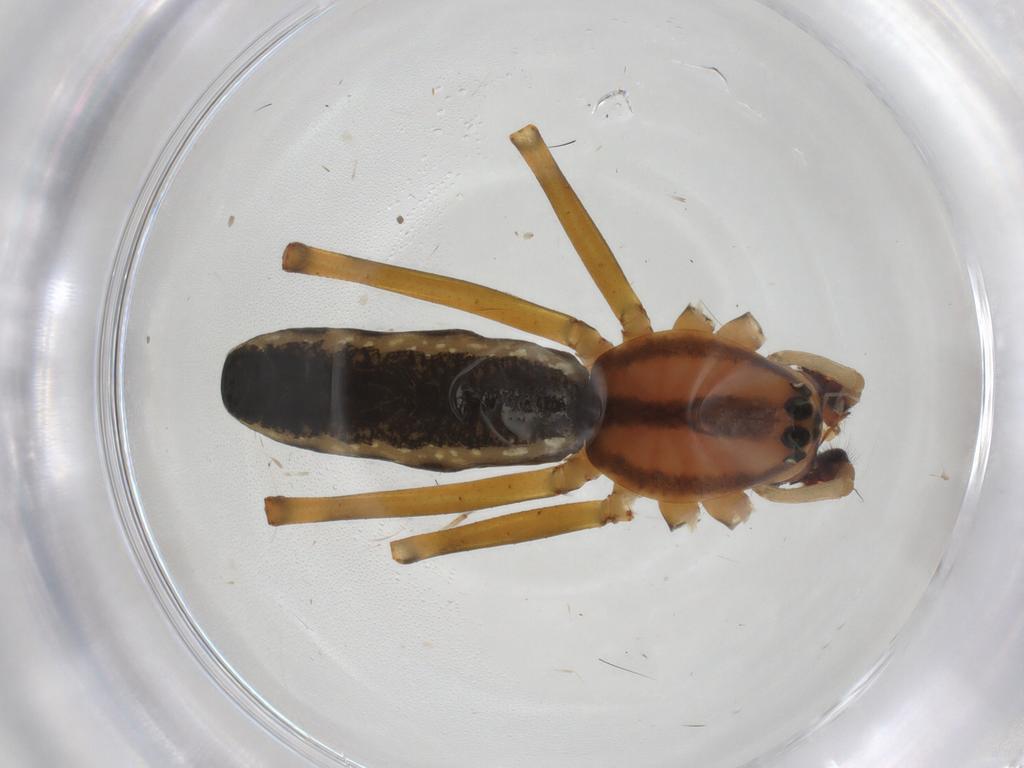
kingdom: Animalia
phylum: Arthropoda
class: Arachnida
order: Araneae
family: Linyphiidae
